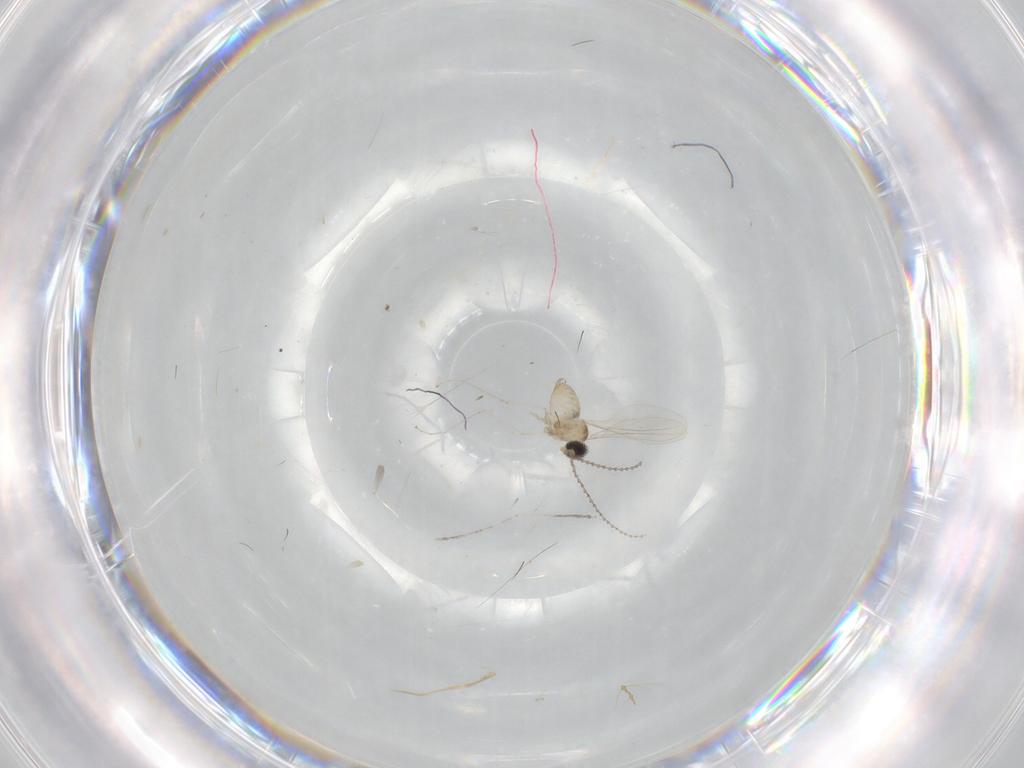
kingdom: Animalia
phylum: Arthropoda
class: Insecta
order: Diptera
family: Cecidomyiidae
